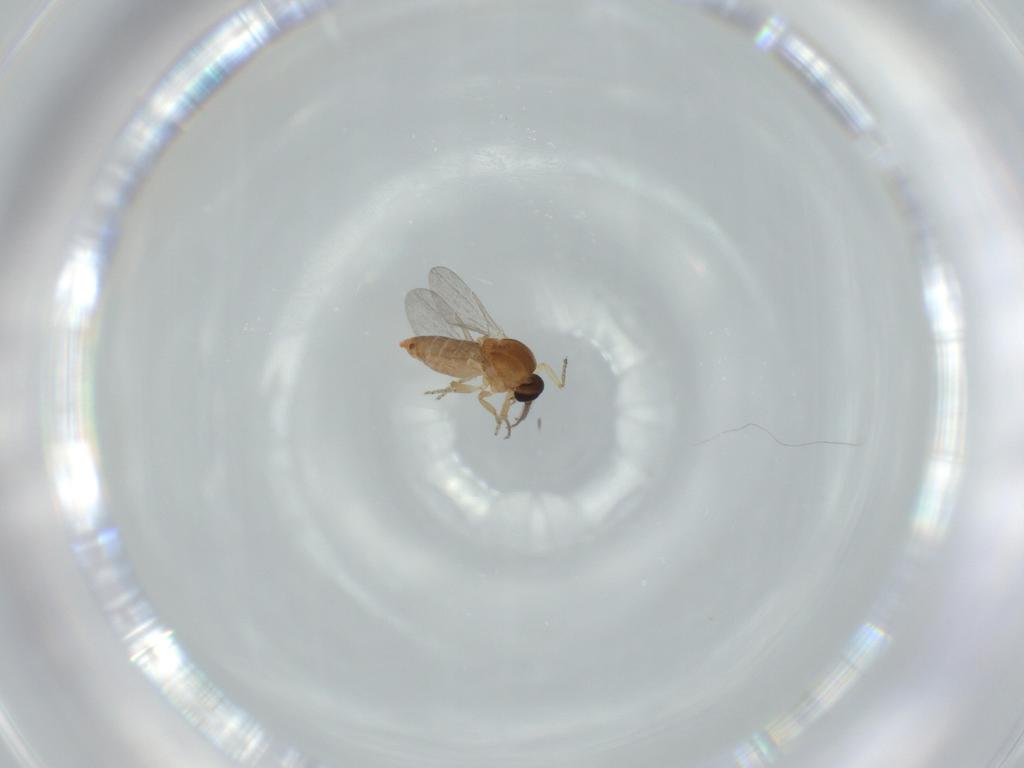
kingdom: Animalia
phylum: Arthropoda
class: Insecta
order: Diptera
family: Ceratopogonidae
